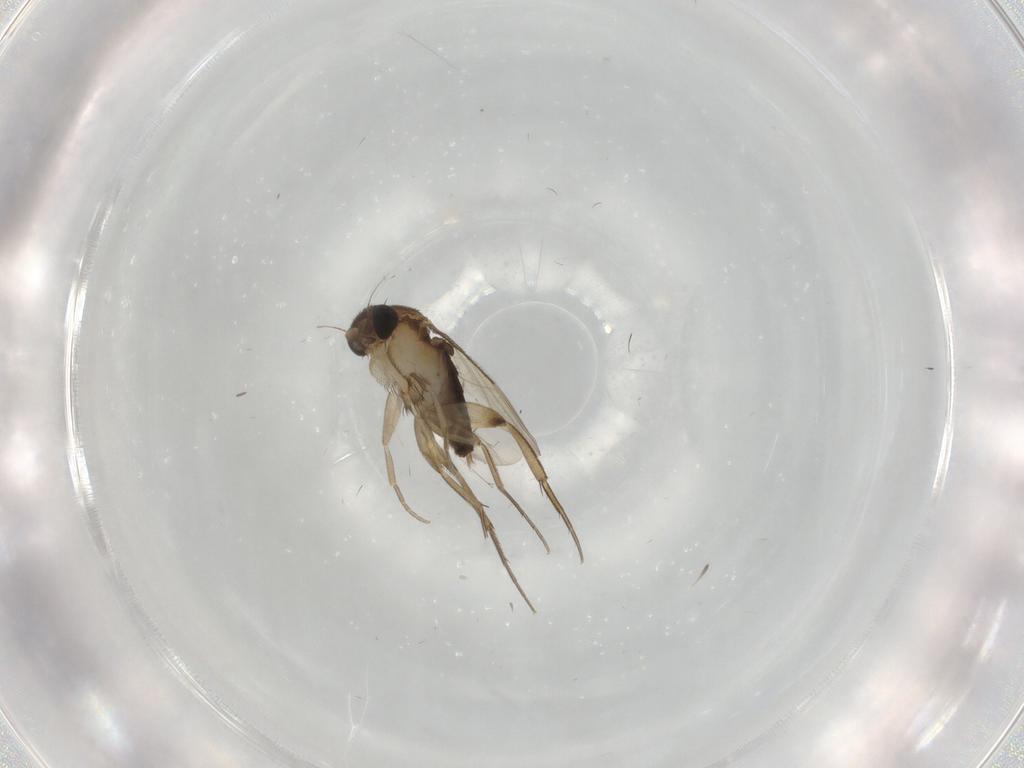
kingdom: Animalia
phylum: Arthropoda
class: Insecta
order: Diptera
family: Phoridae
